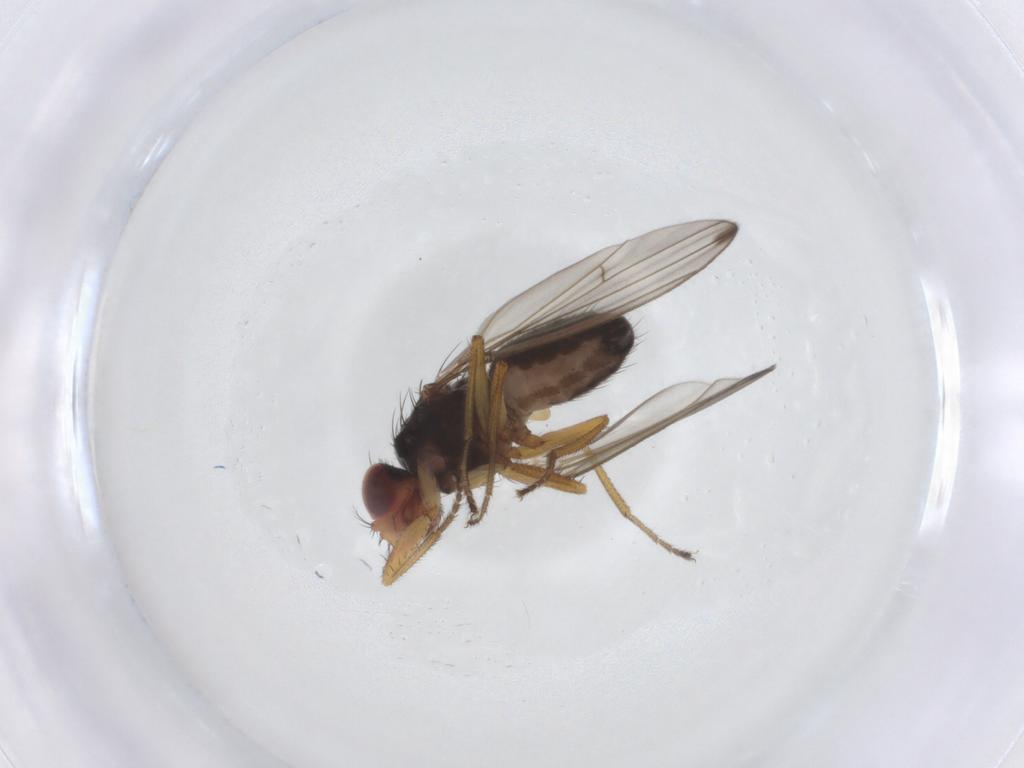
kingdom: Animalia
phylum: Arthropoda
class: Insecta
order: Diptera
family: Drosophilidae
